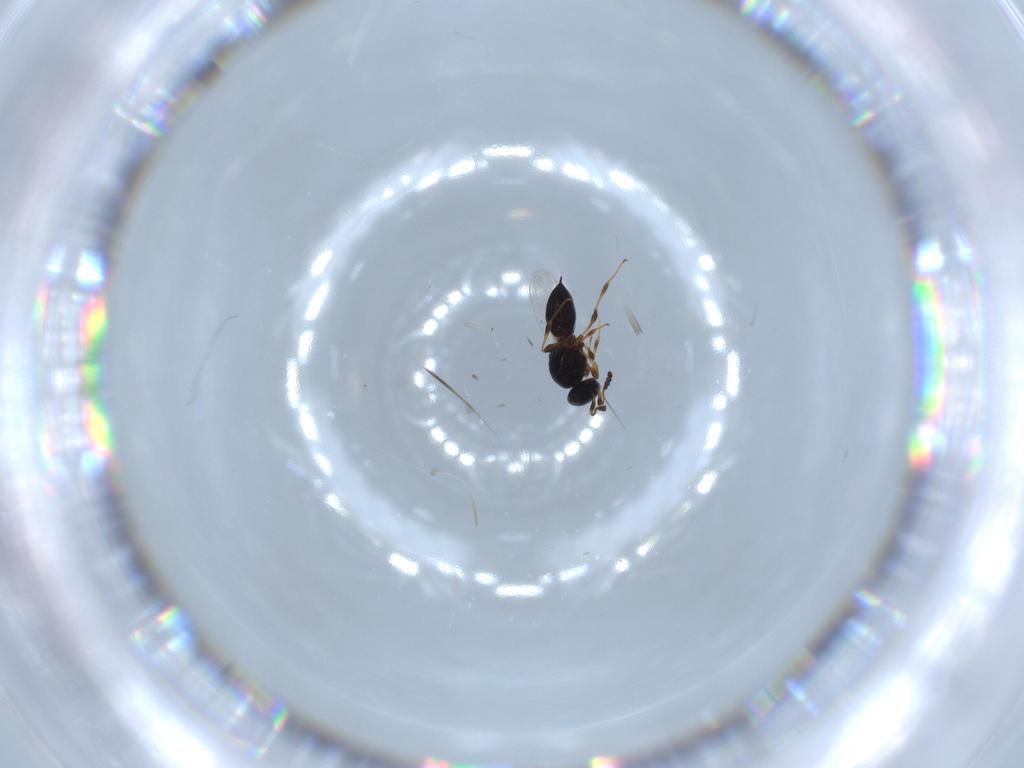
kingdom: Animalia
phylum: Arthropoda
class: Insecta
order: Hymenoptera
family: Platygastridae
